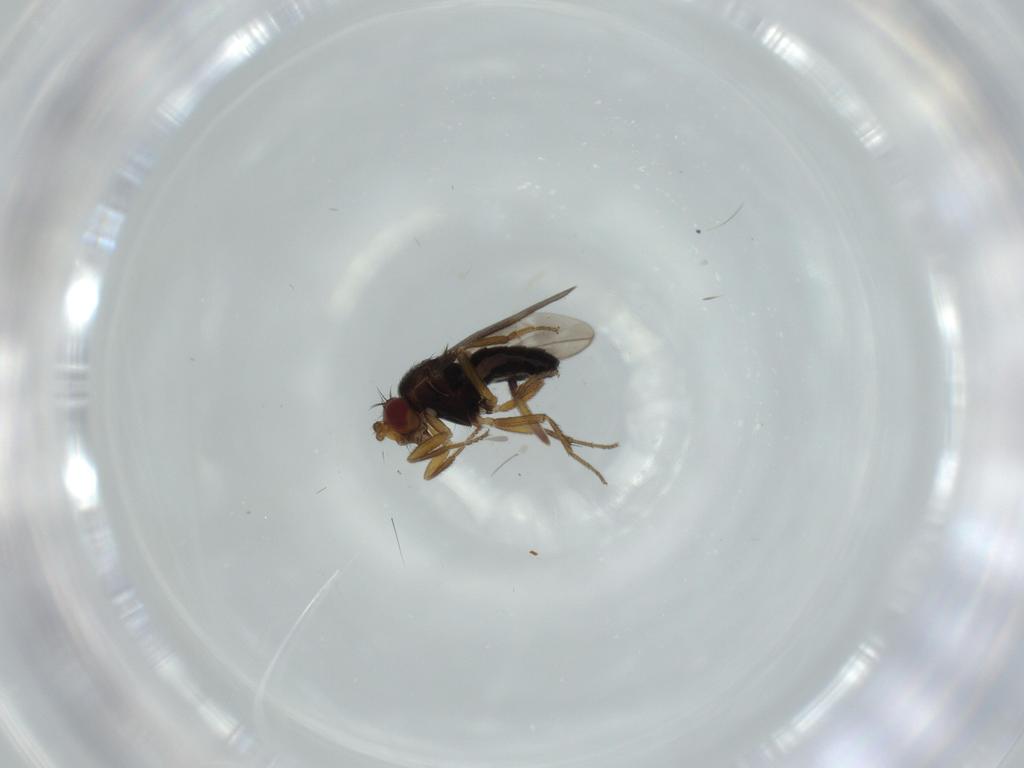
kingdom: Animalia
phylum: Arthropoda
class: Insecta
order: Diptera
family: Sphaeroceridae
